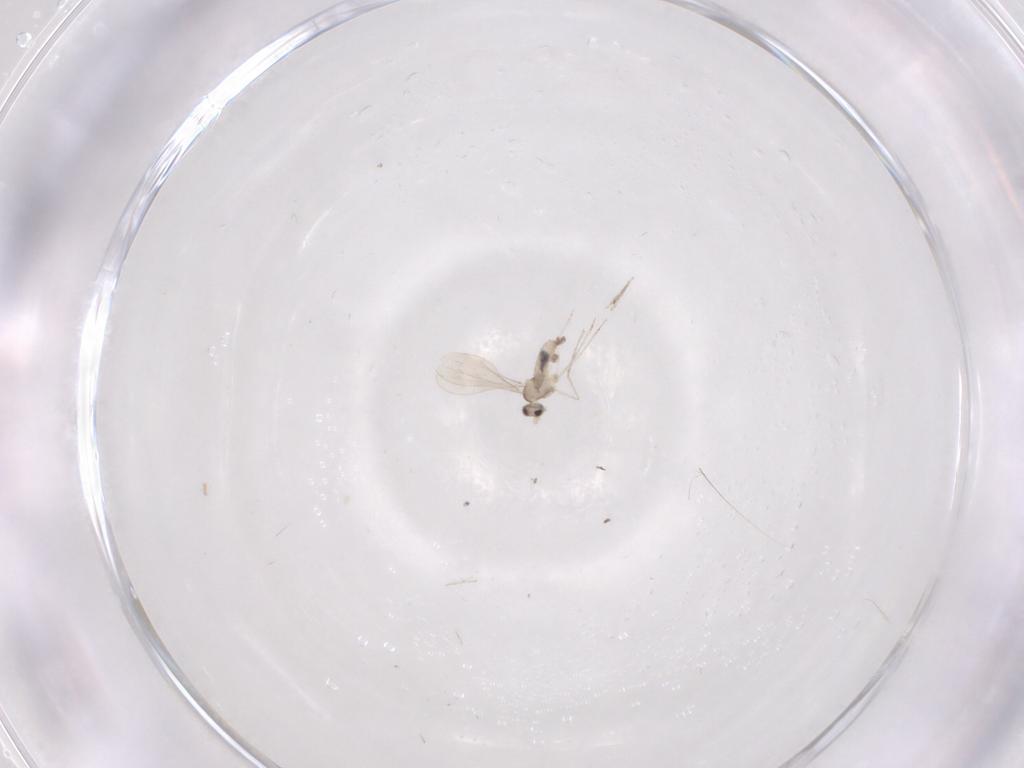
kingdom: Animalia
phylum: Arthropoda
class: Insecta
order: Diptera
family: Cecidomyiidae
